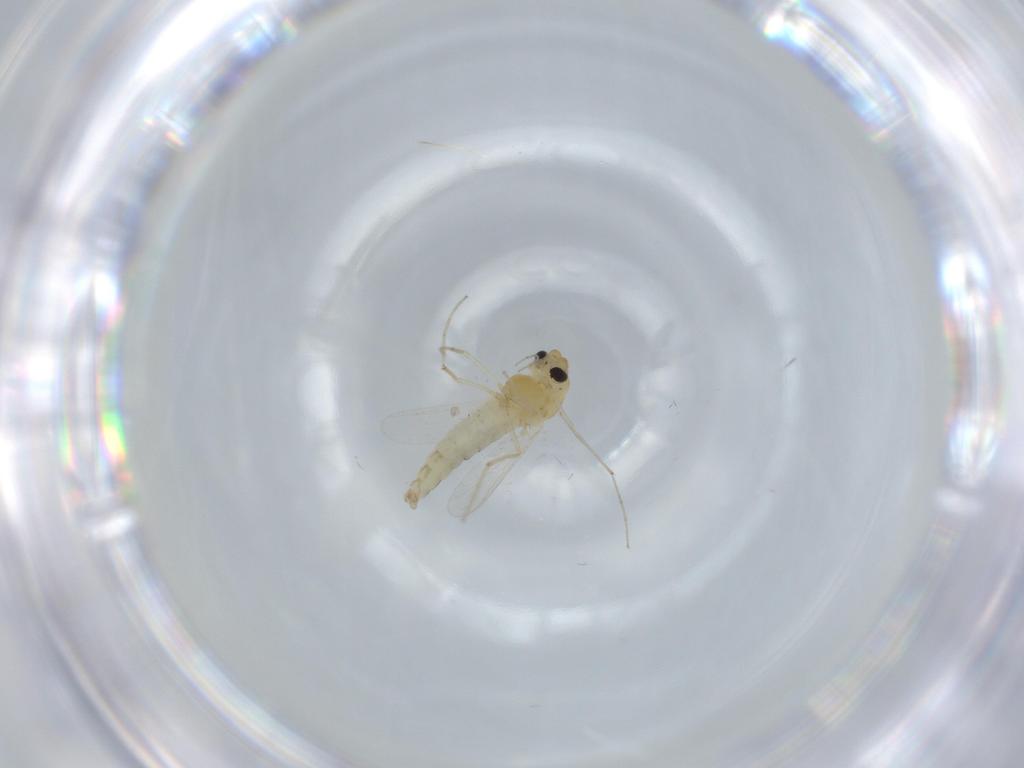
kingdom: Animalia
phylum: Arthropoda
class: Insecta
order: Diptera
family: Chironomidae
